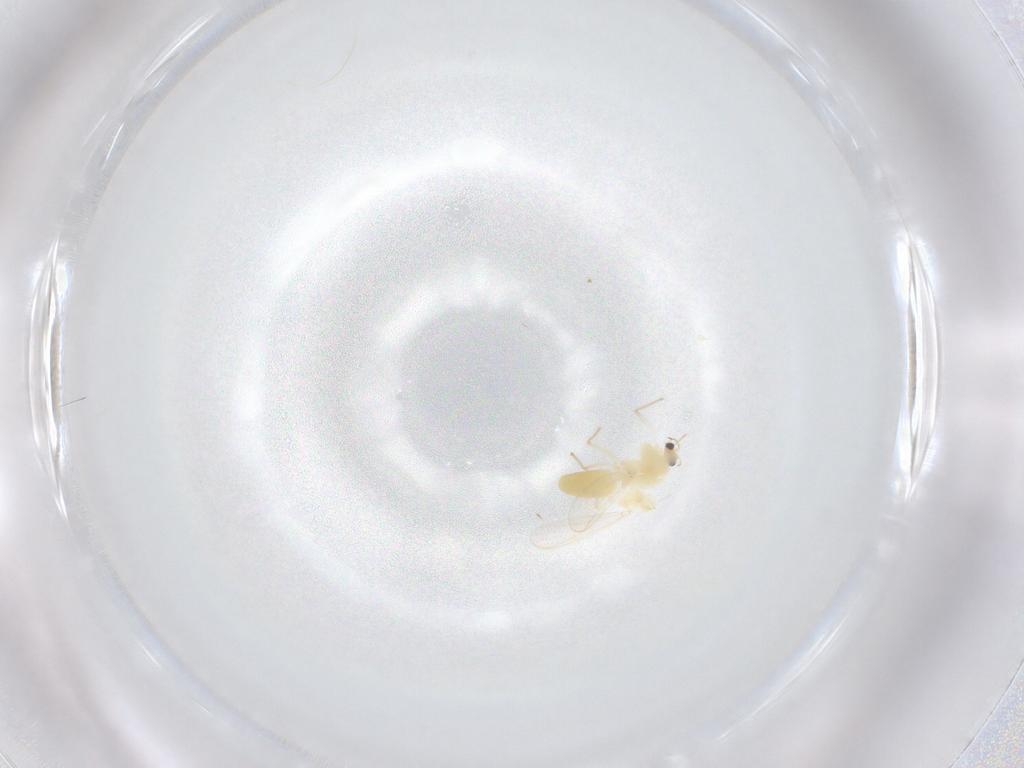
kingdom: Animalia
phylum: Arthropoda
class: Insecta
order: Diptera
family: Chironomidae
